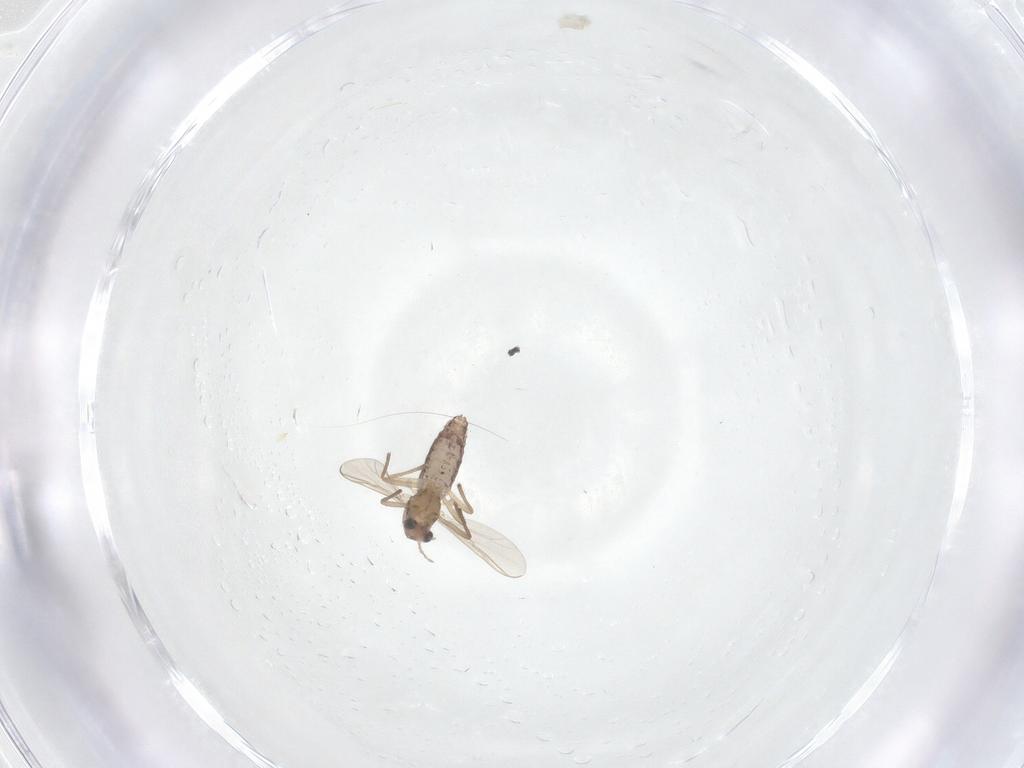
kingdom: Animalia
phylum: Arthropoda
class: Insecta
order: Diptera
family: Chironomidae
